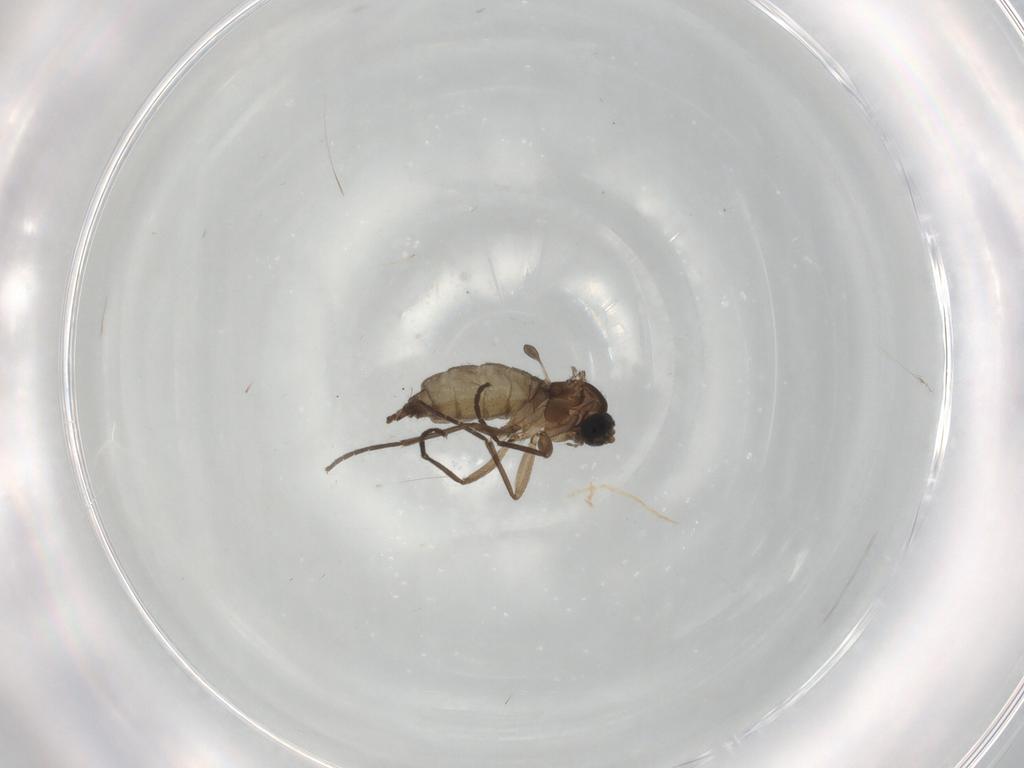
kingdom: Animalia
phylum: Arthropoda
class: Insecta
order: Diptera
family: Sciaridae
